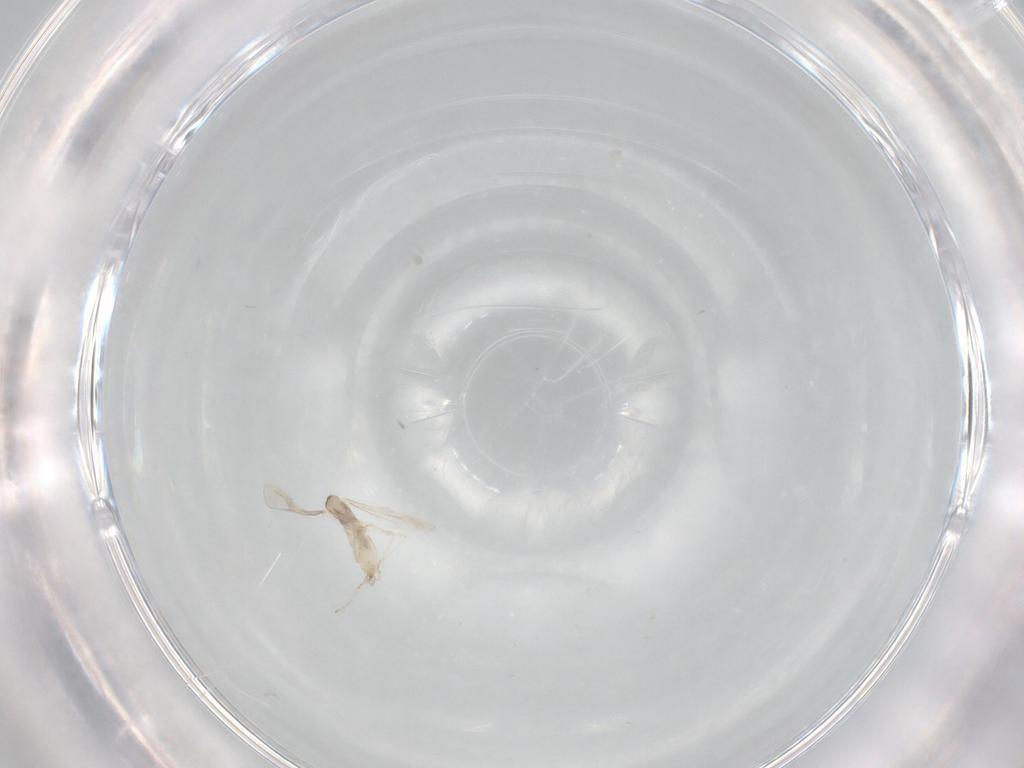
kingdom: Animalia
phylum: Arthropoda
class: Insecta
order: Diptera
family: Cecidomyiidae
